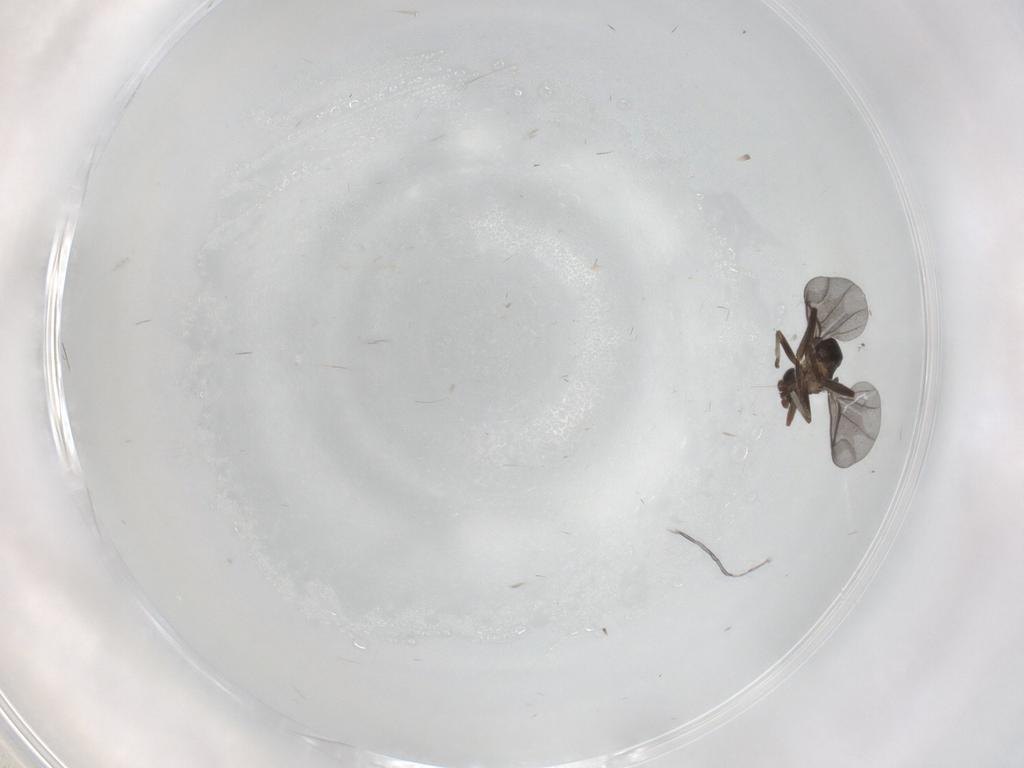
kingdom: Animalia
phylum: Arthropoda
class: Insecta
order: Diptera
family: Phoridae
